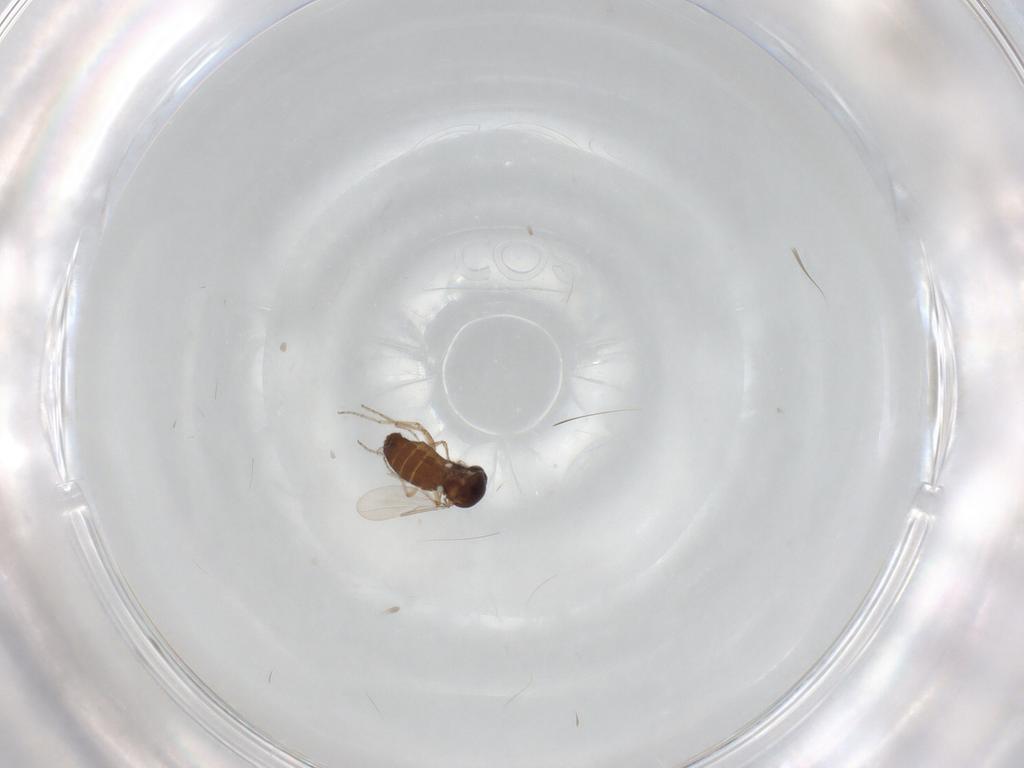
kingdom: Animalia
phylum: Arthropoda
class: Insecta
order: Diptera
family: Ceratopogonidae
